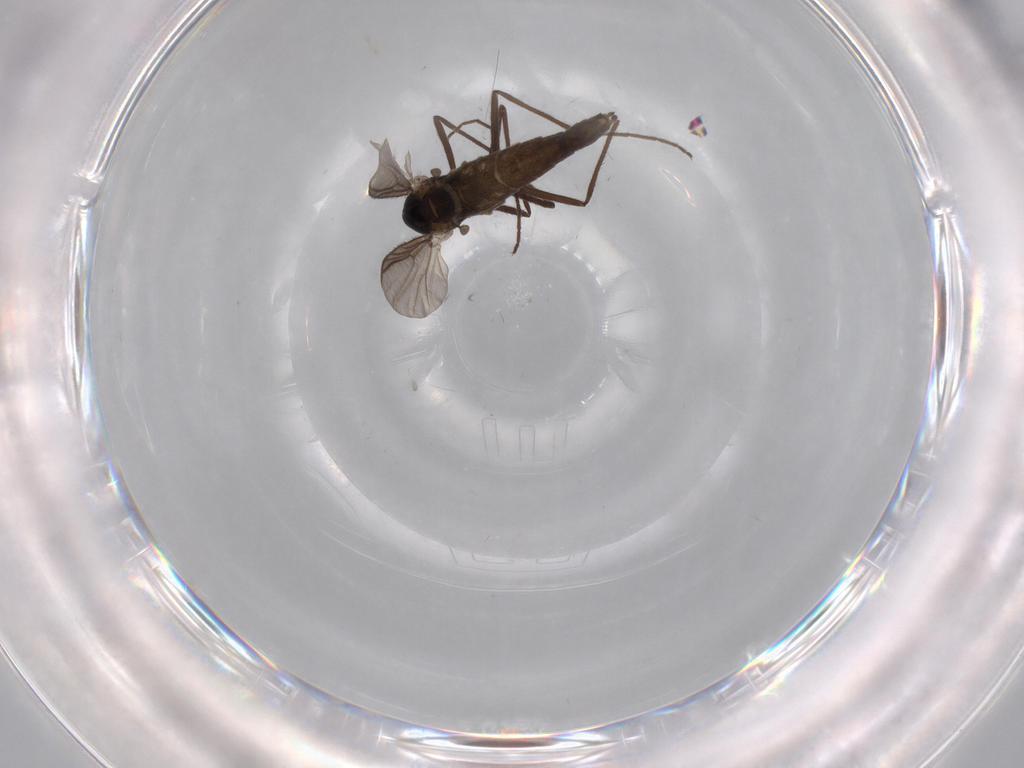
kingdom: Animalia
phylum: Arthropoda
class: Insecta
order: Diptera
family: Chironomidae
